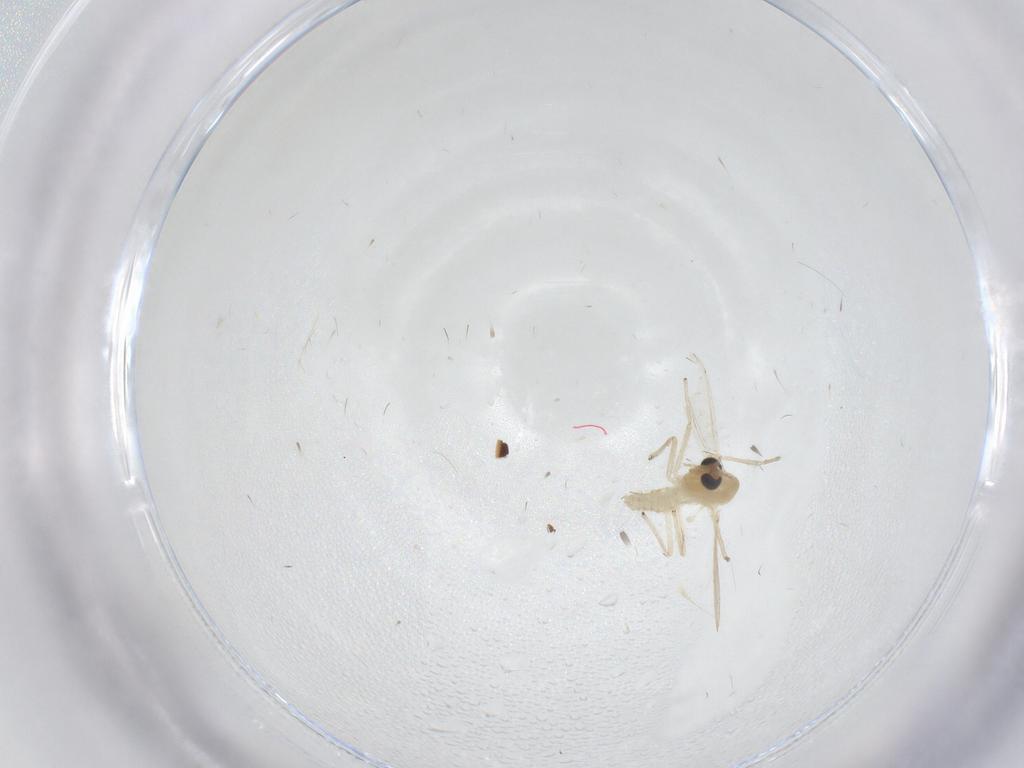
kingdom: Animalia
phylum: Arthropoda
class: Insecta
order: Diptera
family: Chironomidae
